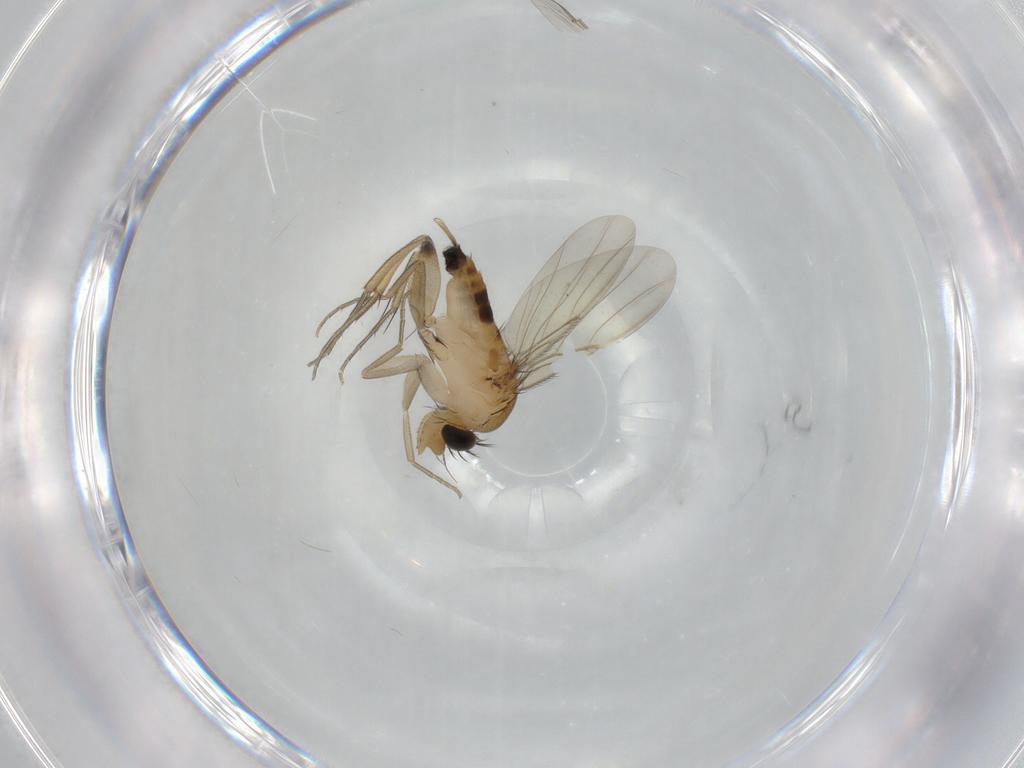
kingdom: Animalia
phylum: Arthropoda
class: Insecta
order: Diptera
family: Phoridae
